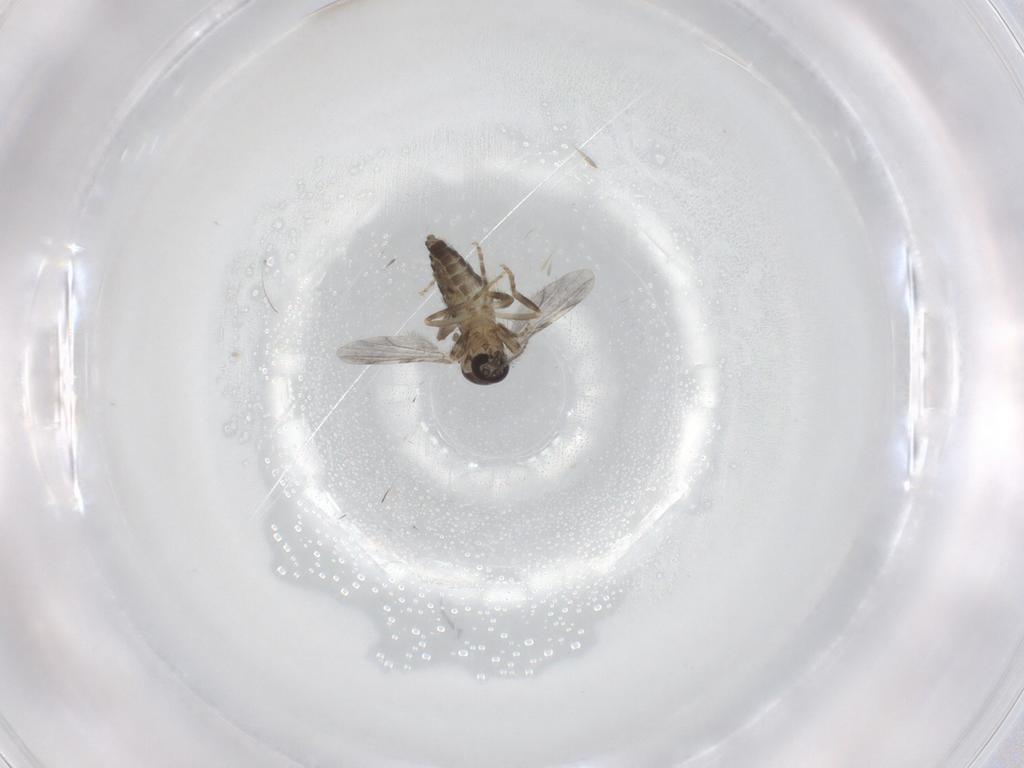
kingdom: Animalia
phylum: Arthropoda
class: Insecta
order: Diptera
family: Ceratopogonidae
